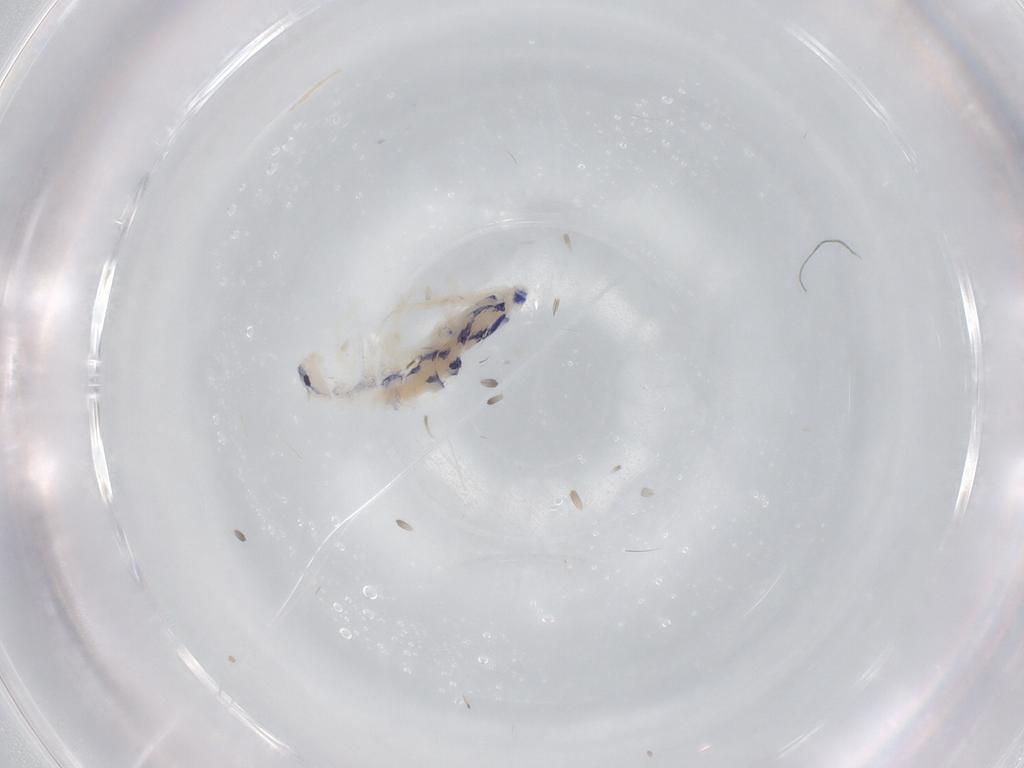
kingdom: Animalia
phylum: Arthropoda
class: Collembola
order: Entomobryomorpha
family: Entomobryidae
